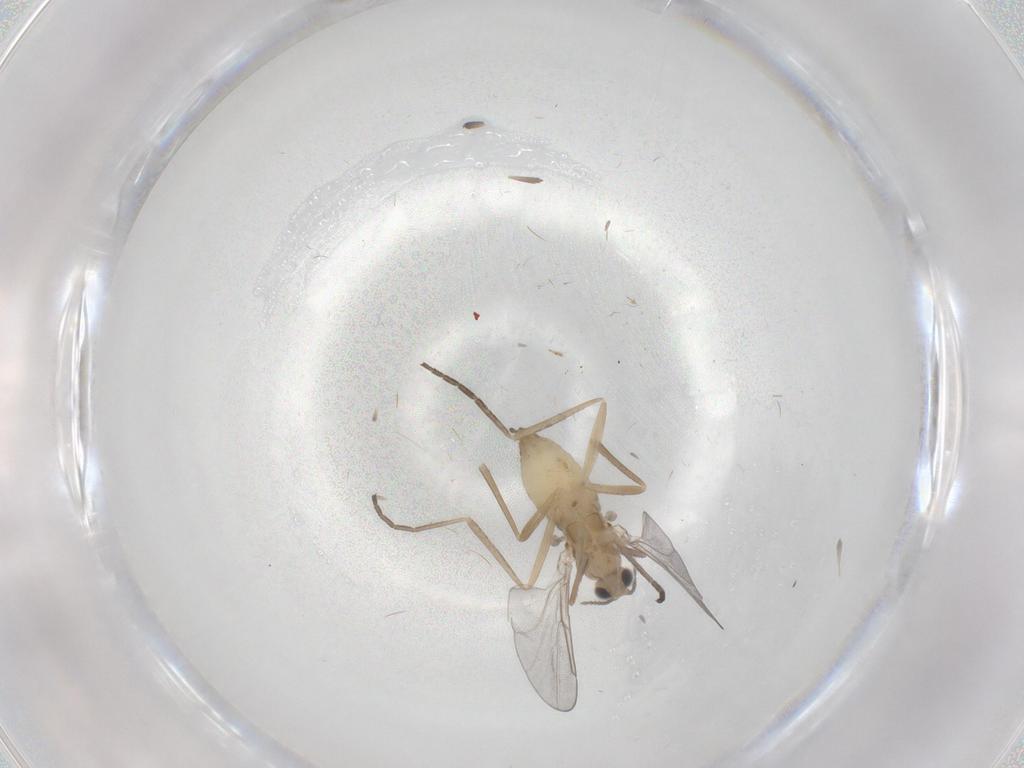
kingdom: Animalia
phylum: Arthropoda
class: Insecta
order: Diptera
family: Cecidomyiidae
